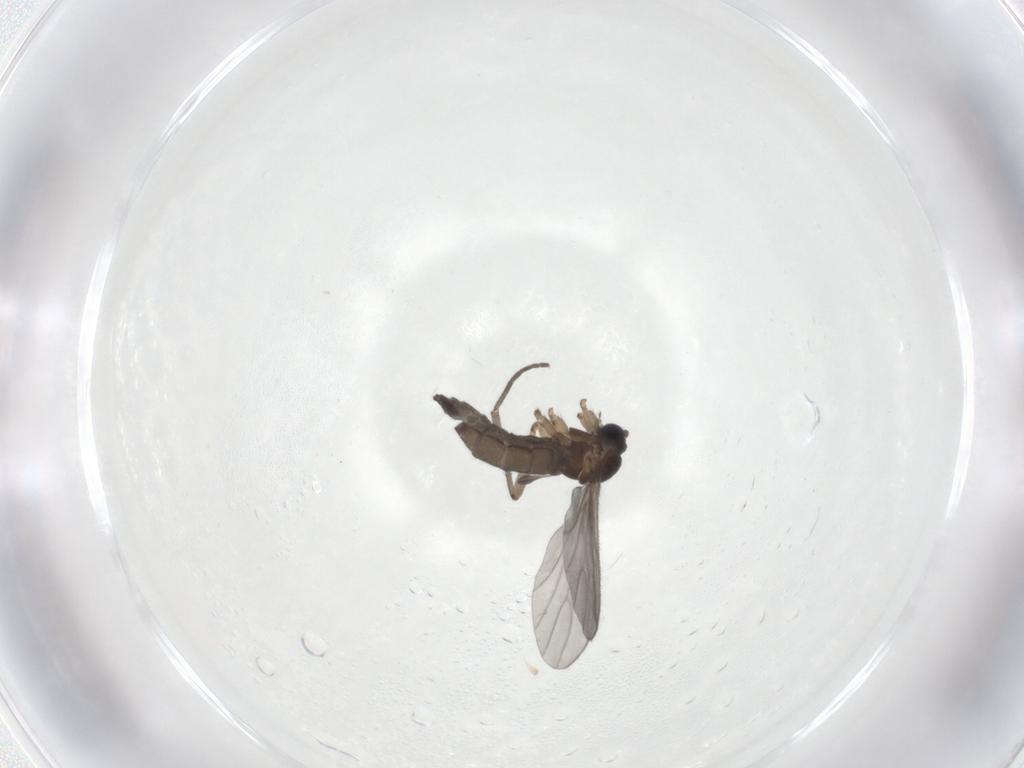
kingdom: Animalia
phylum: Arthropoda
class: Insecta
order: Diptera
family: Sciaridae
